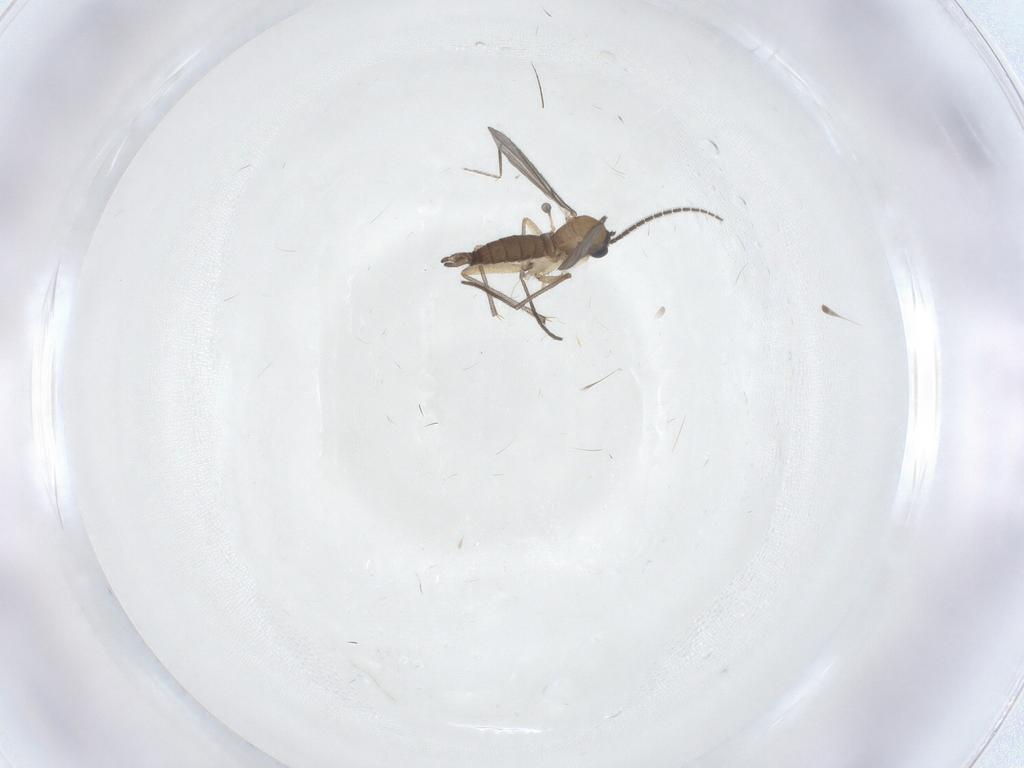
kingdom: Animalia
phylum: Arthropoda
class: Insecta
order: Diptera
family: Sciaridae
